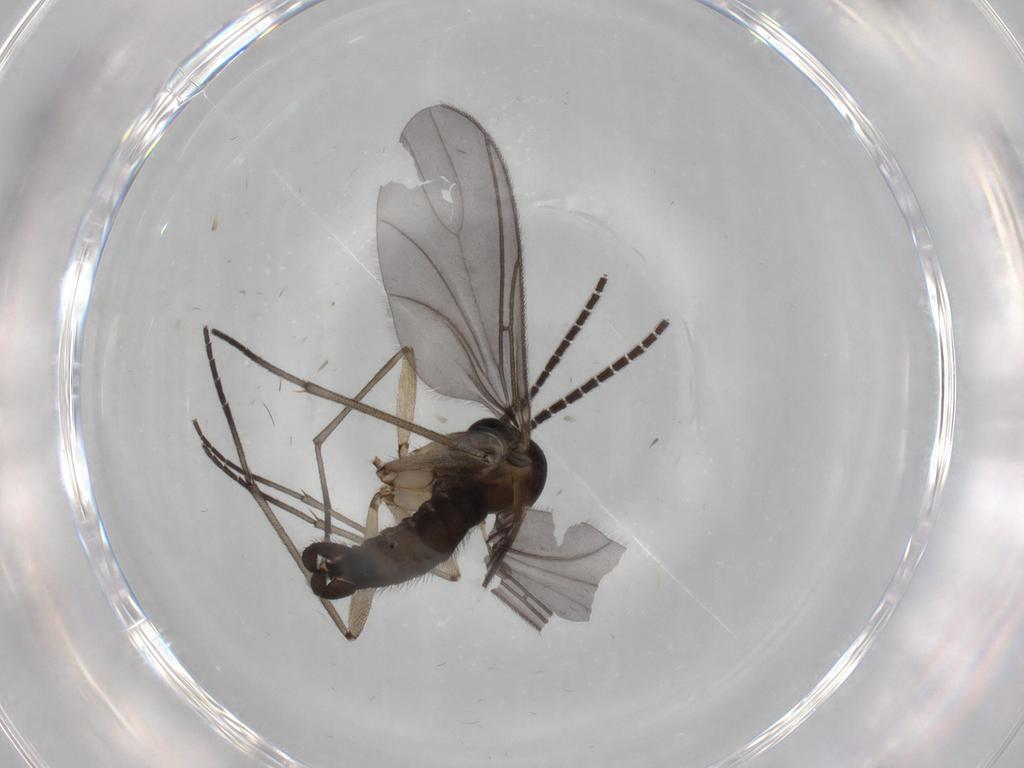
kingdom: Animalia
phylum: Arthropoda
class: Insecta
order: Diptera
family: Sciaridae
